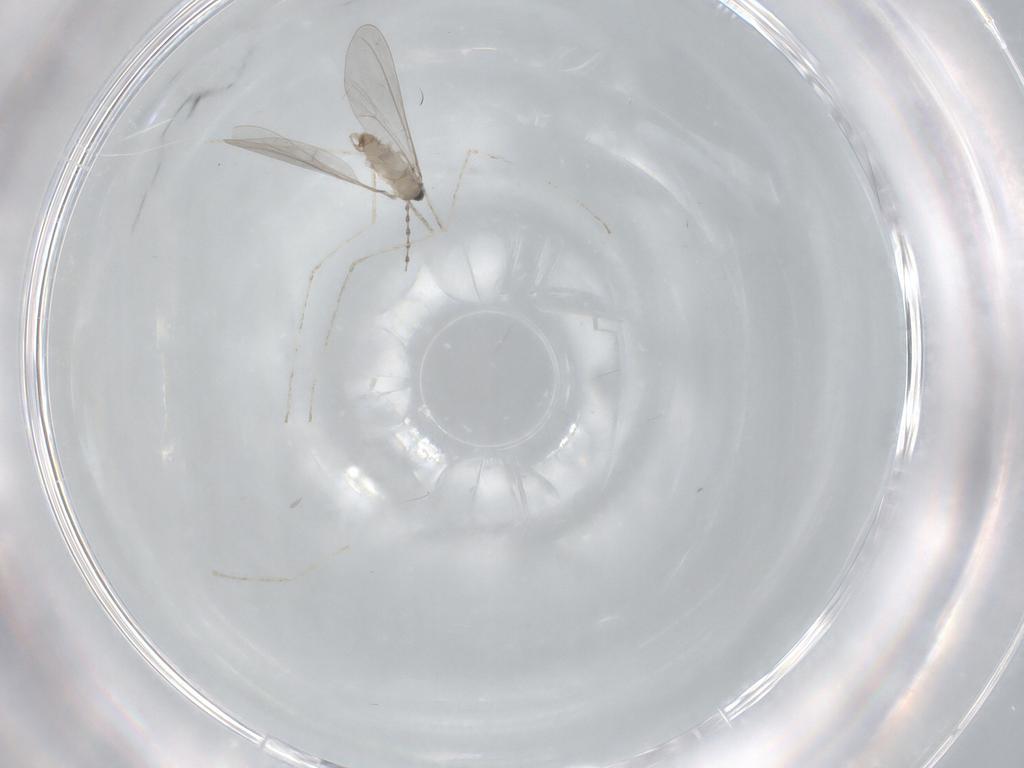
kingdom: Animalia
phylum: Arthropoda
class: Insecta
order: Diptera
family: Cecidomyiidae
